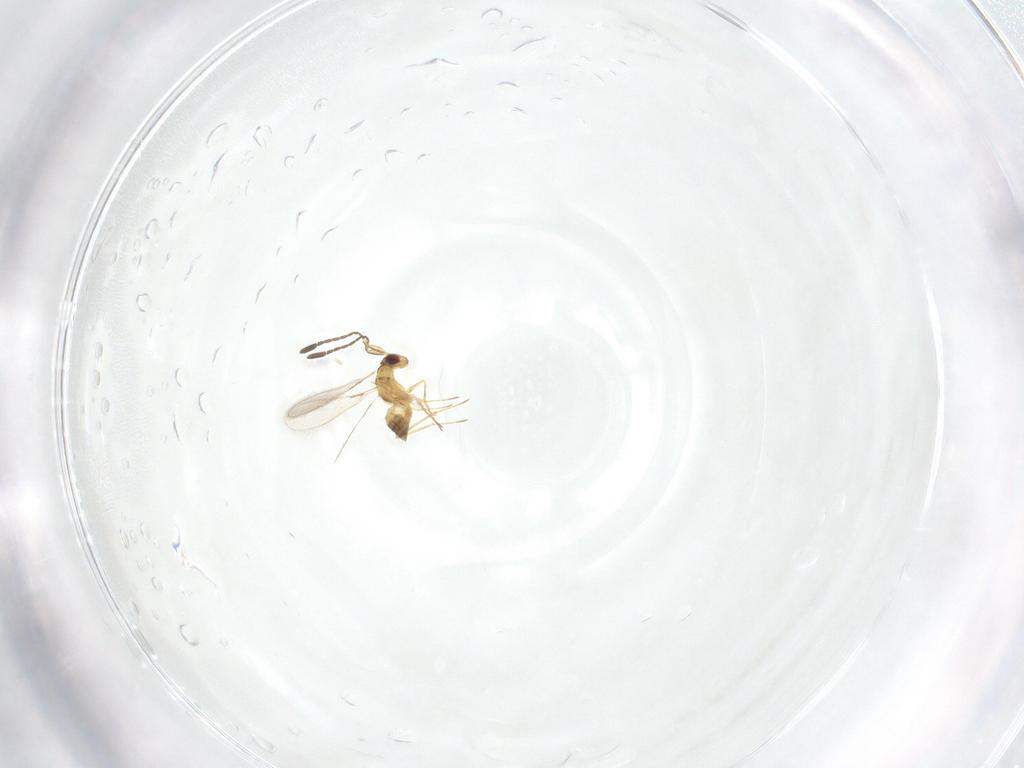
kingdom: Animalia
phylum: Arthropoda
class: Insecta
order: Hymenoptera
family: Mymaridae
